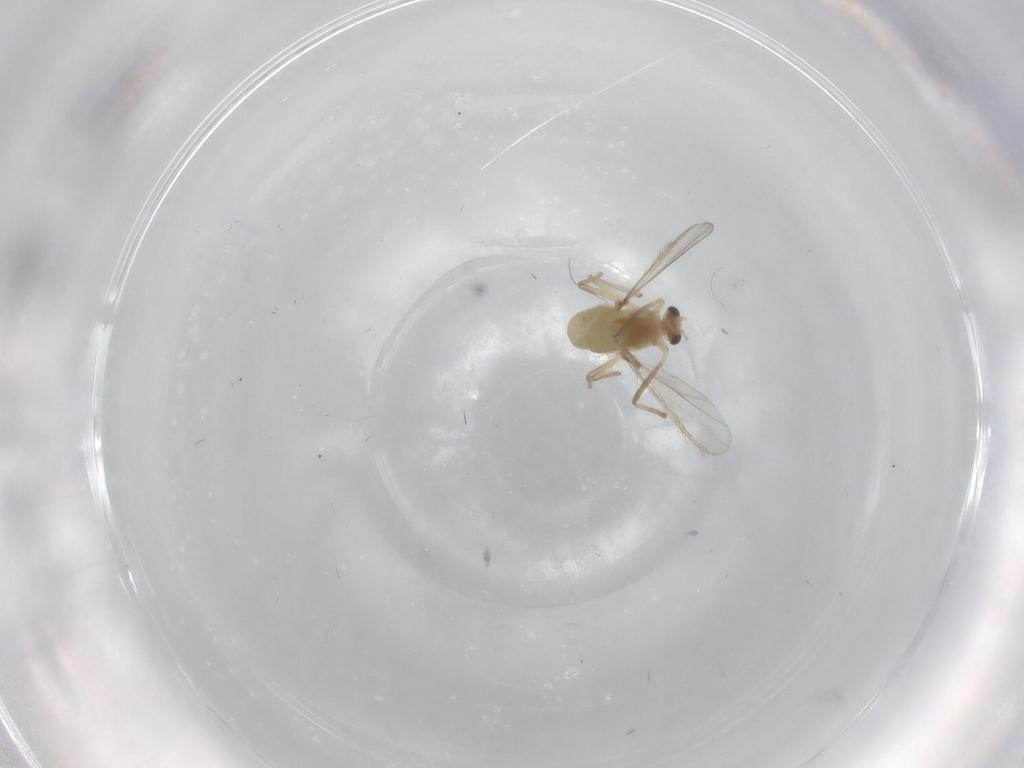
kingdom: Animalia
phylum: Arthropoda
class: Insecta
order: Diptera
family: Chironomidae
